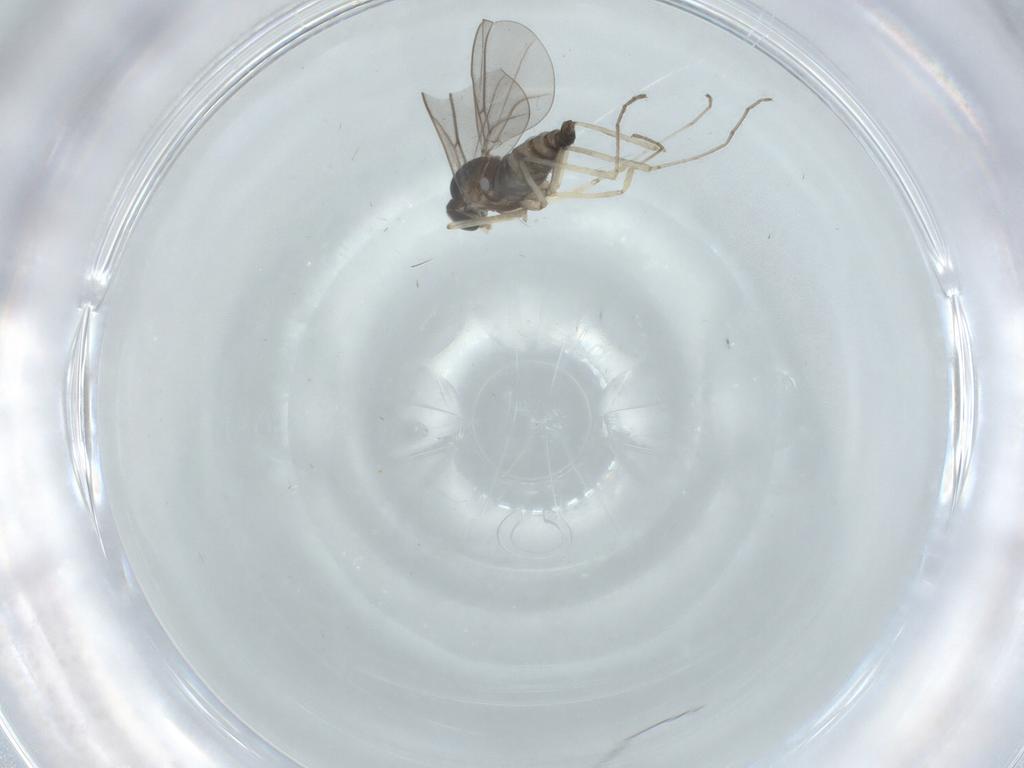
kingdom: Animalia
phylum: Arthropoda
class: Insecta
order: Diptera
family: Cecidomyiidae
